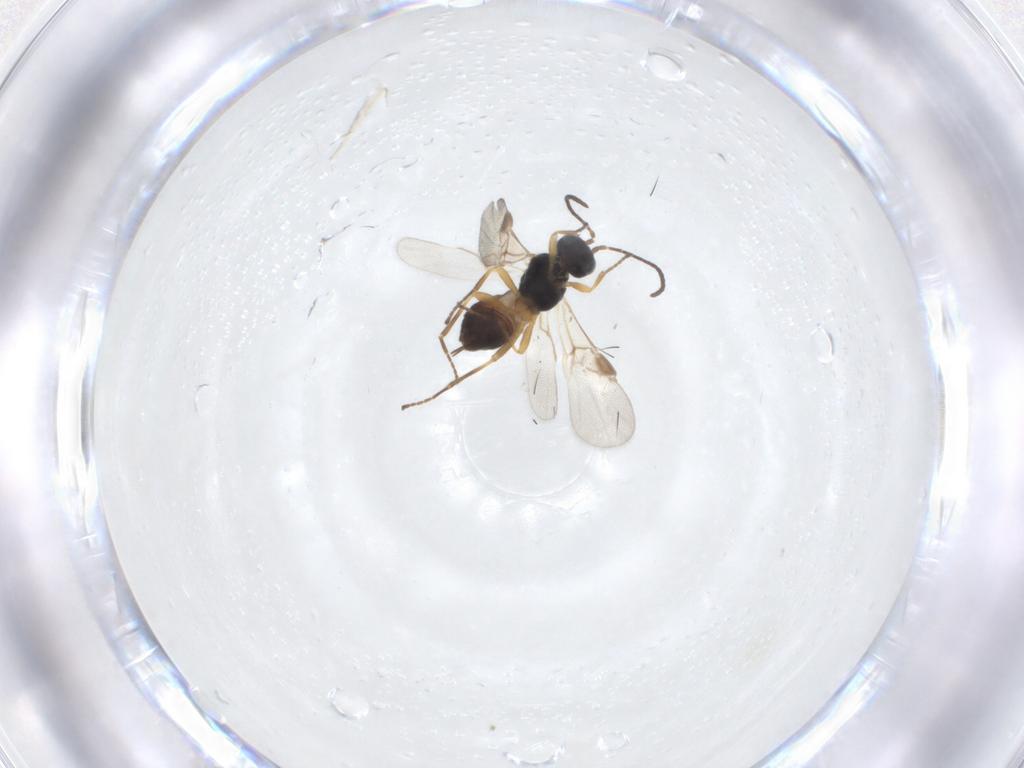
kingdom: Animalia
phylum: Arthropoda
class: Insecta
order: Hymenoptera
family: Braconidae
